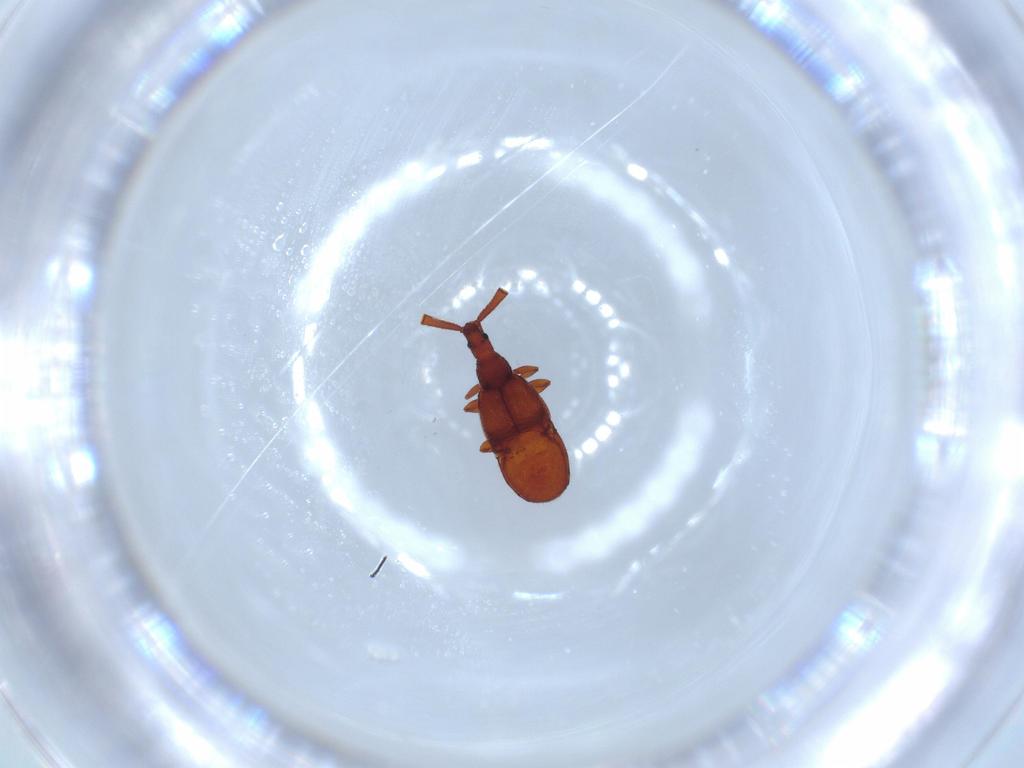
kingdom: Animalia
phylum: Arthropoda
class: Insecta
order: Coleoptera
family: Staphylinidae
